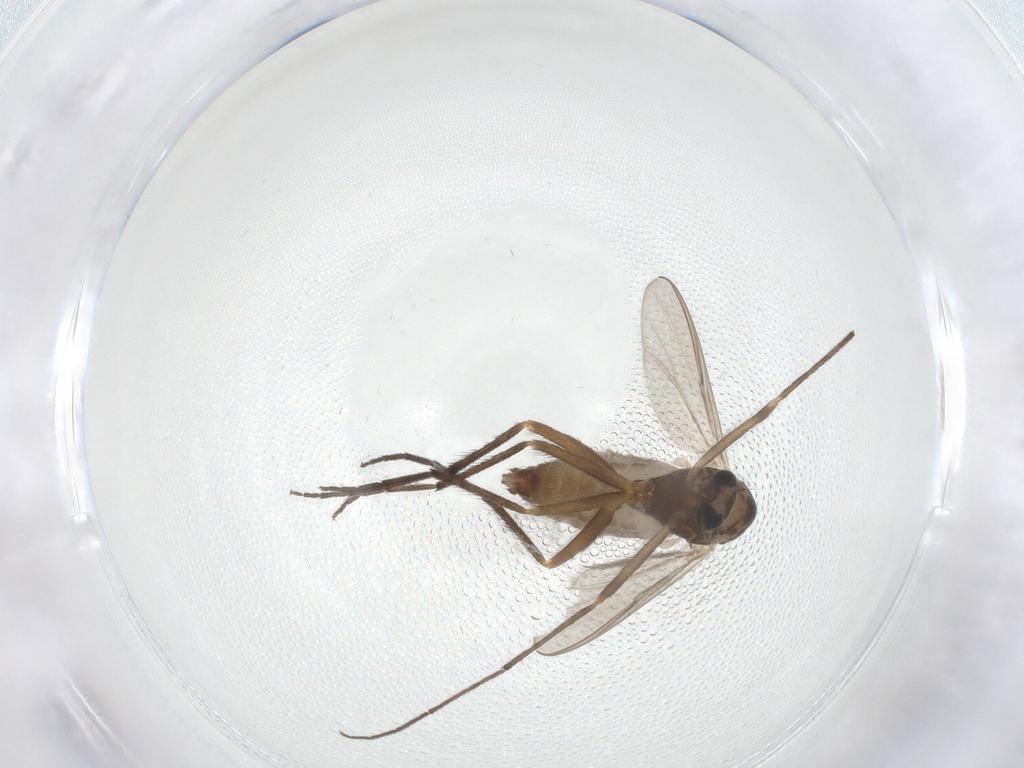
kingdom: Animalia
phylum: Arthropoda
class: Insecta
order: Diptera
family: Chironomidae
